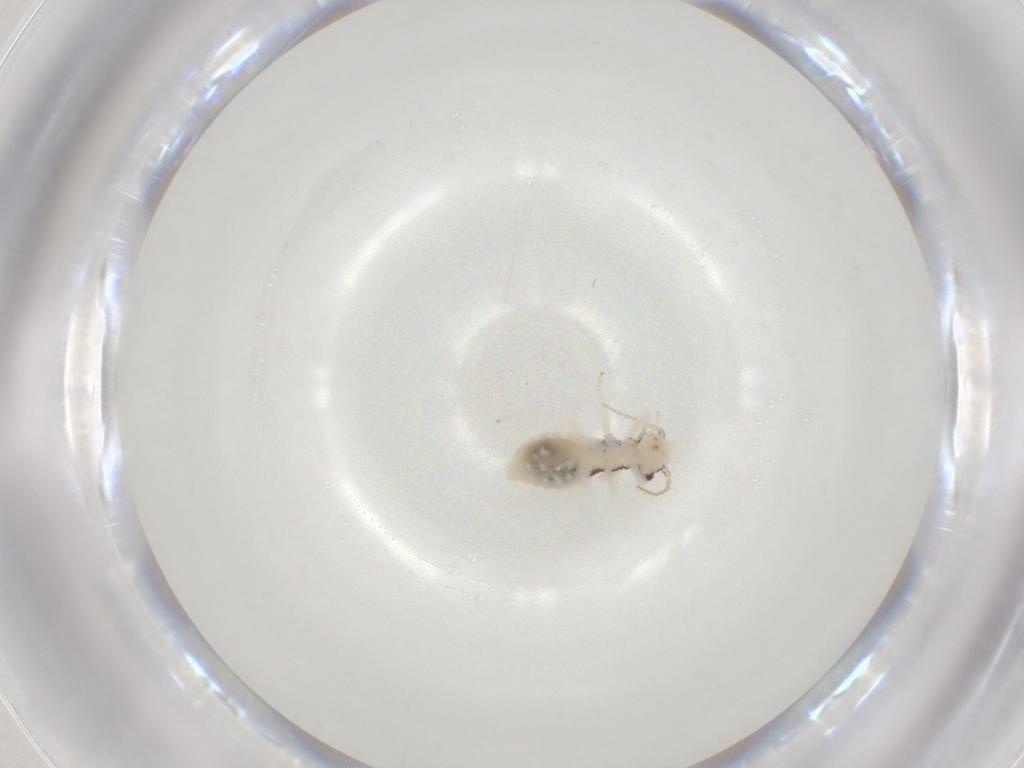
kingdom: Animalia
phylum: Arthropoda
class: Insecta
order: Psocodea
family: Philotarsidae
